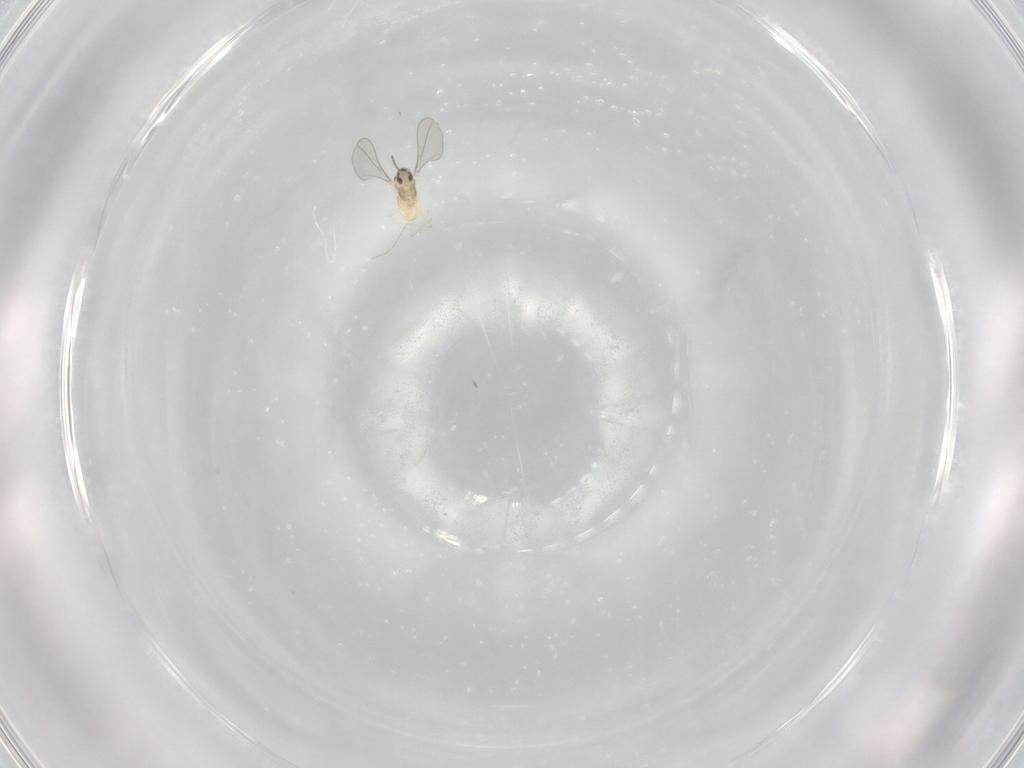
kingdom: Animalia
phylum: Arthropoda
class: Insecta
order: Diptera
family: Cecidomyiidae
